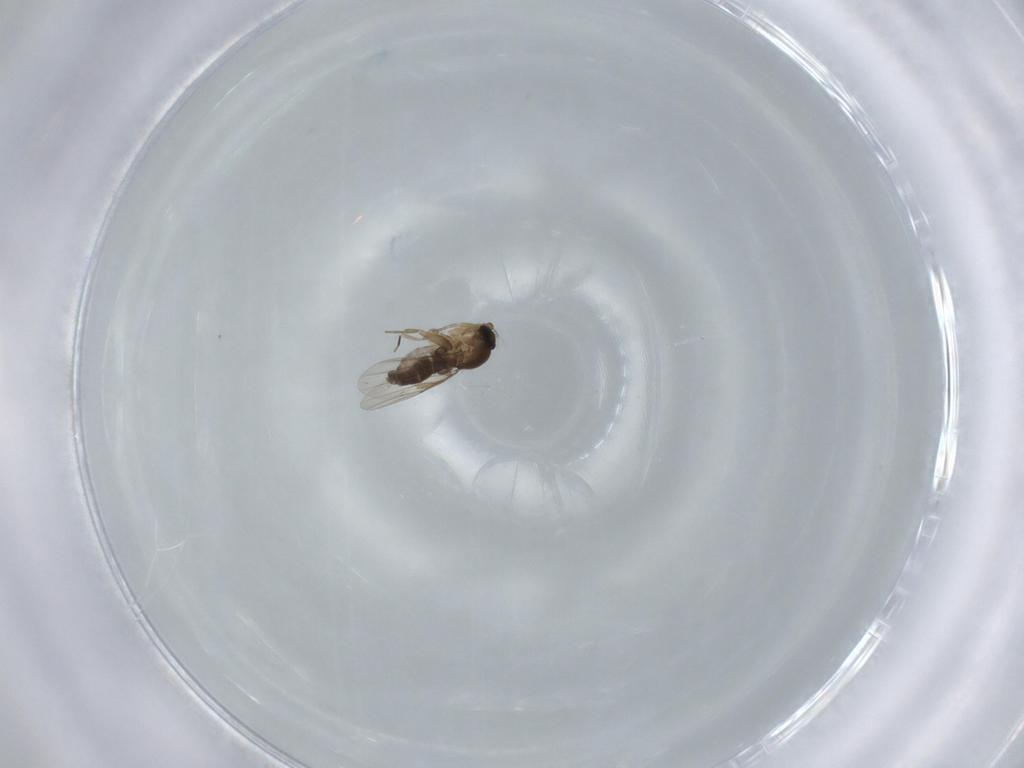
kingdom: Animalia
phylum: Arthropoda
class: Insecta
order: Diptera
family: Phoridae
